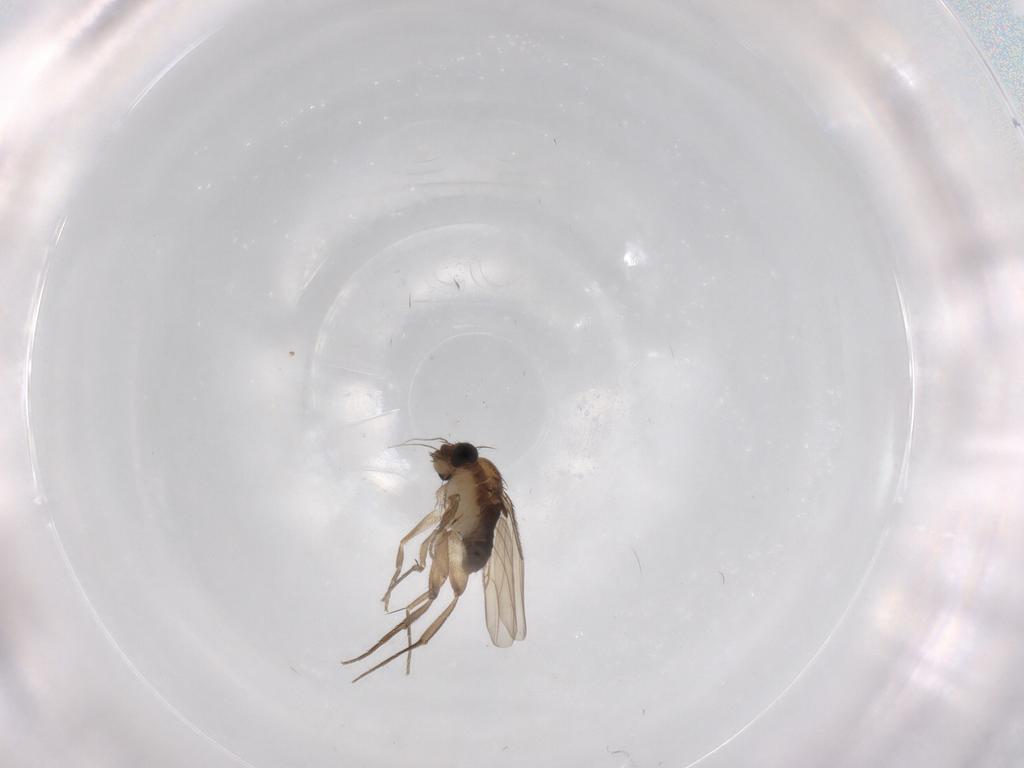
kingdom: Animalia
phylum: Arthropoda
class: Insecta
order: Diptera
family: Phoridae
